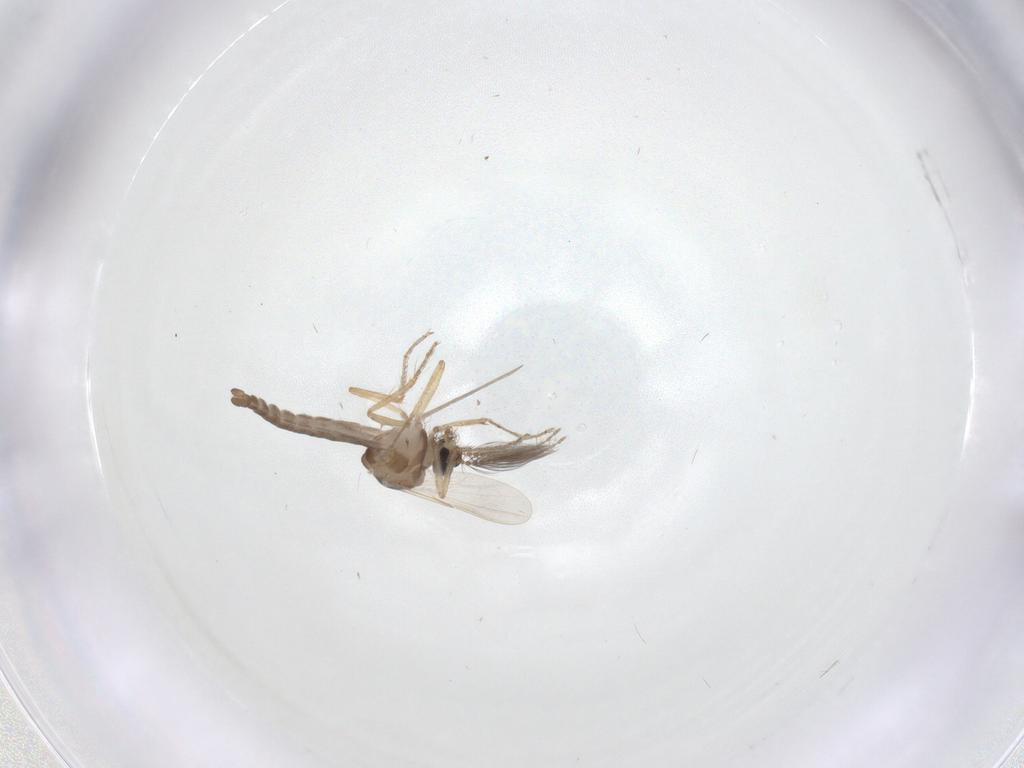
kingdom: Animalia
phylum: Arthropoda
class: Insecta
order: Diptera
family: Ceratopogonidae
